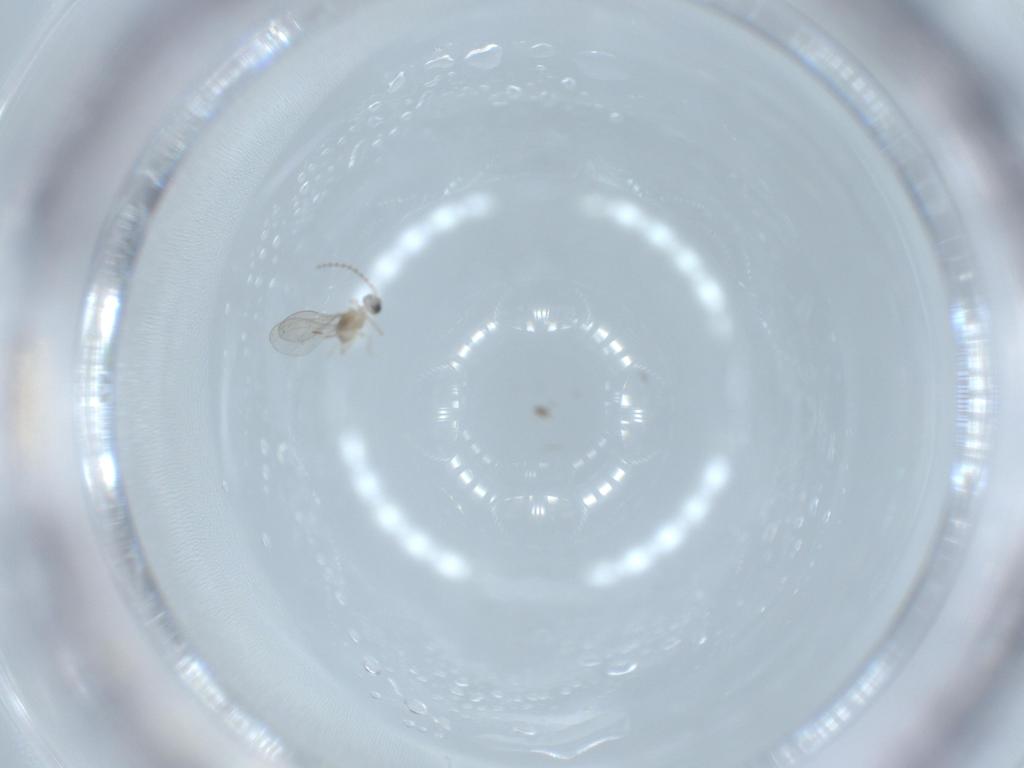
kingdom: Animalia
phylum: Arthropoda
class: Insecta
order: Diptera
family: Cecidomyiidae
